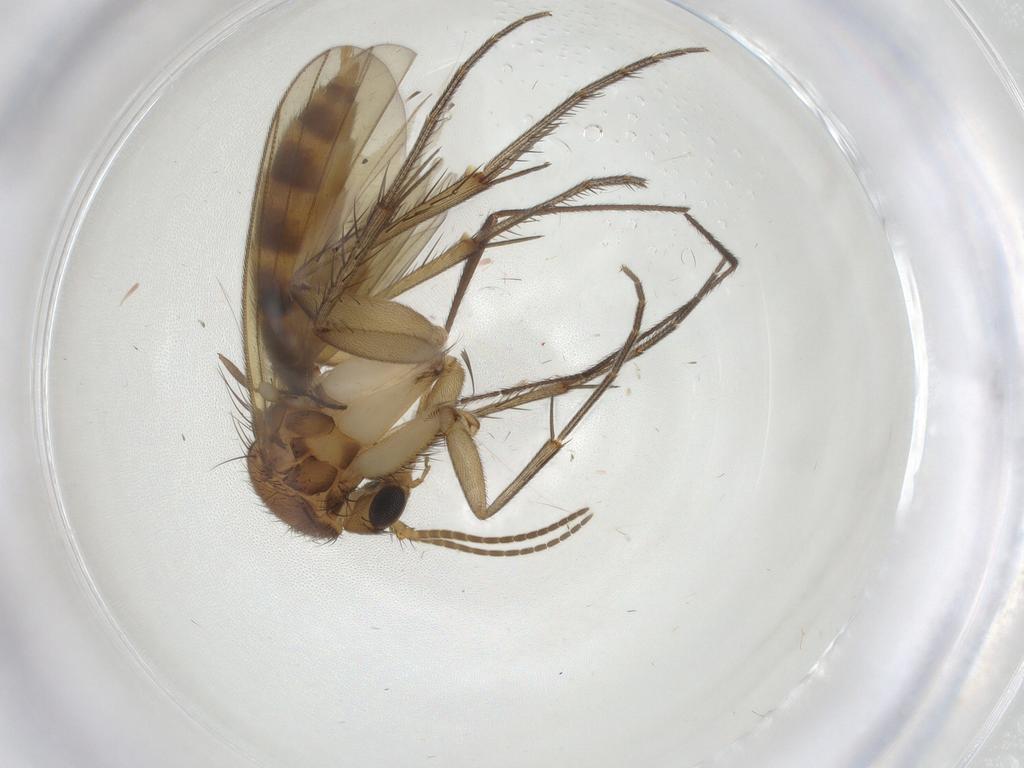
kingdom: Animalia
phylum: Arthropoda
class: Insecta
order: Diptera
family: Mycetophilidae
